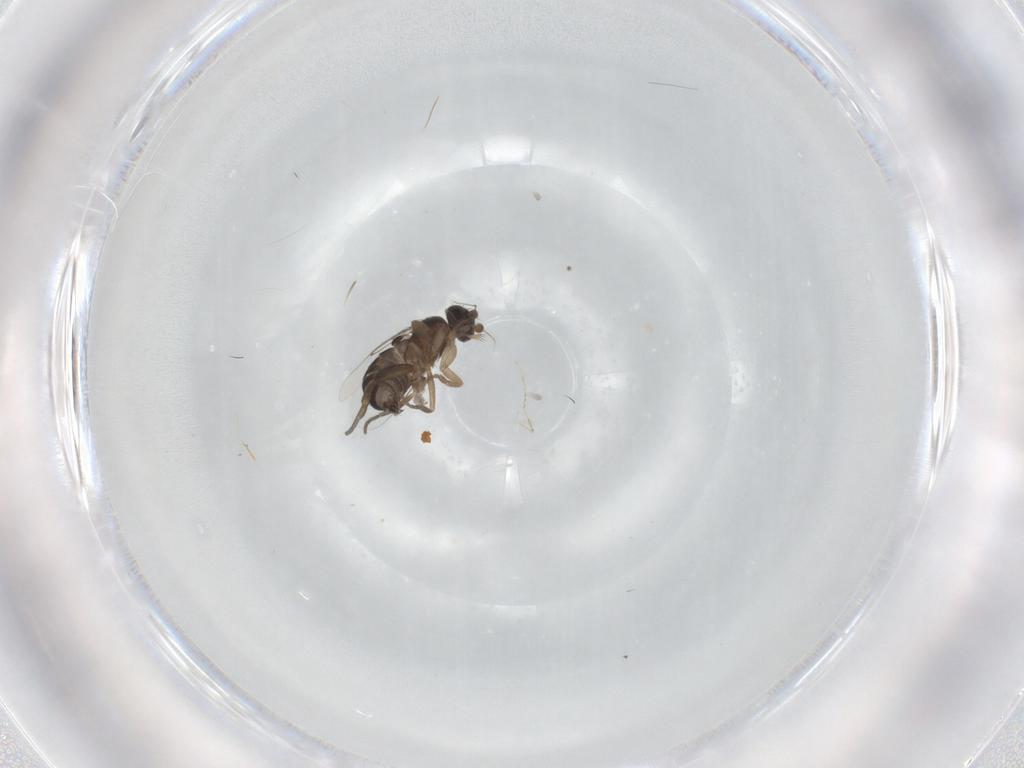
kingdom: Animalia
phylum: Arthropoda
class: Insecta
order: Diptera
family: Phoridae
